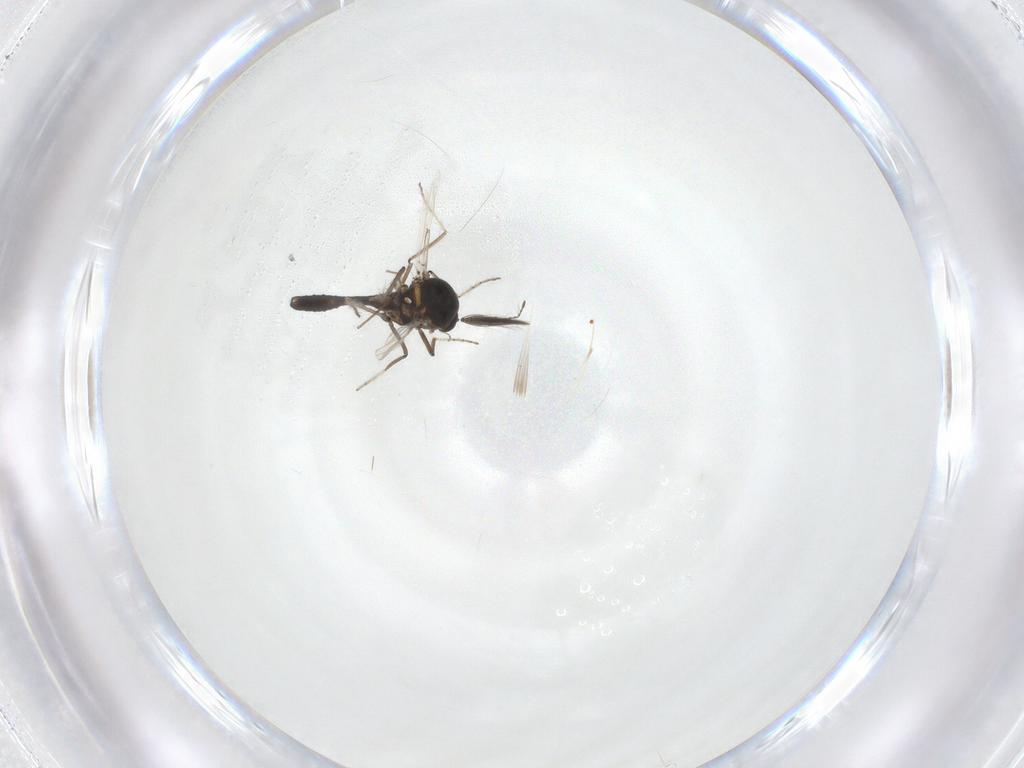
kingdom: Animalia
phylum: Arthropoda
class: Insecta
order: Diptera
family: Ceratopogonidae
